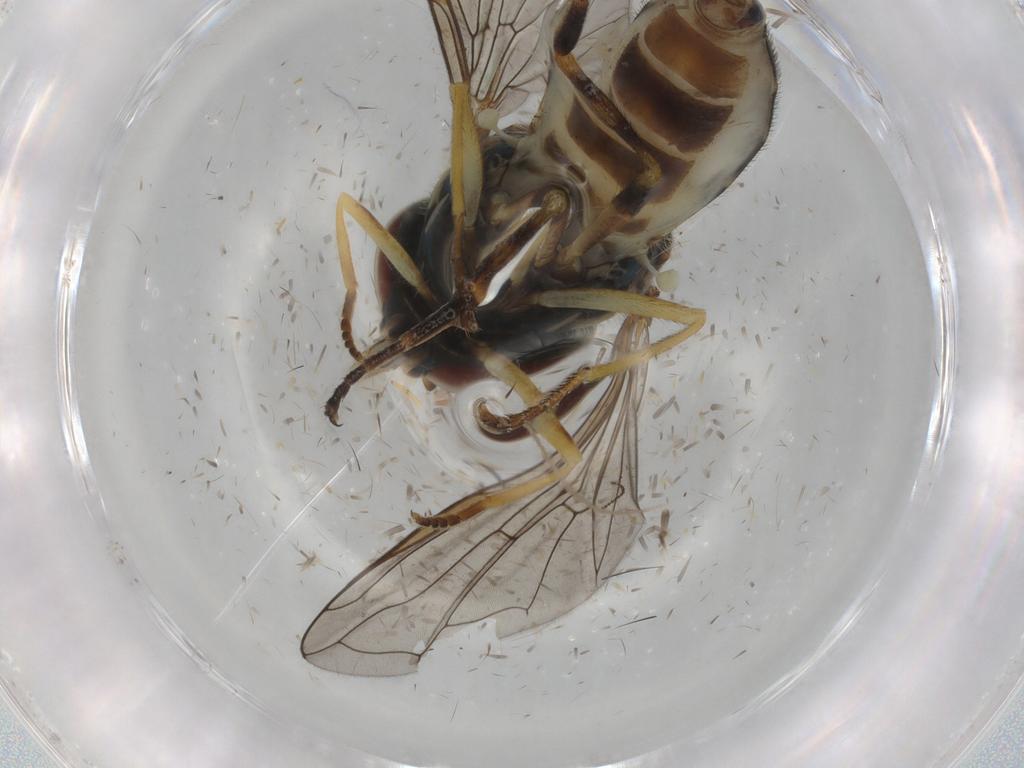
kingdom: Animalia
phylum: Arthropoda
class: Insecta
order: Diptera
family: Syrphidae
